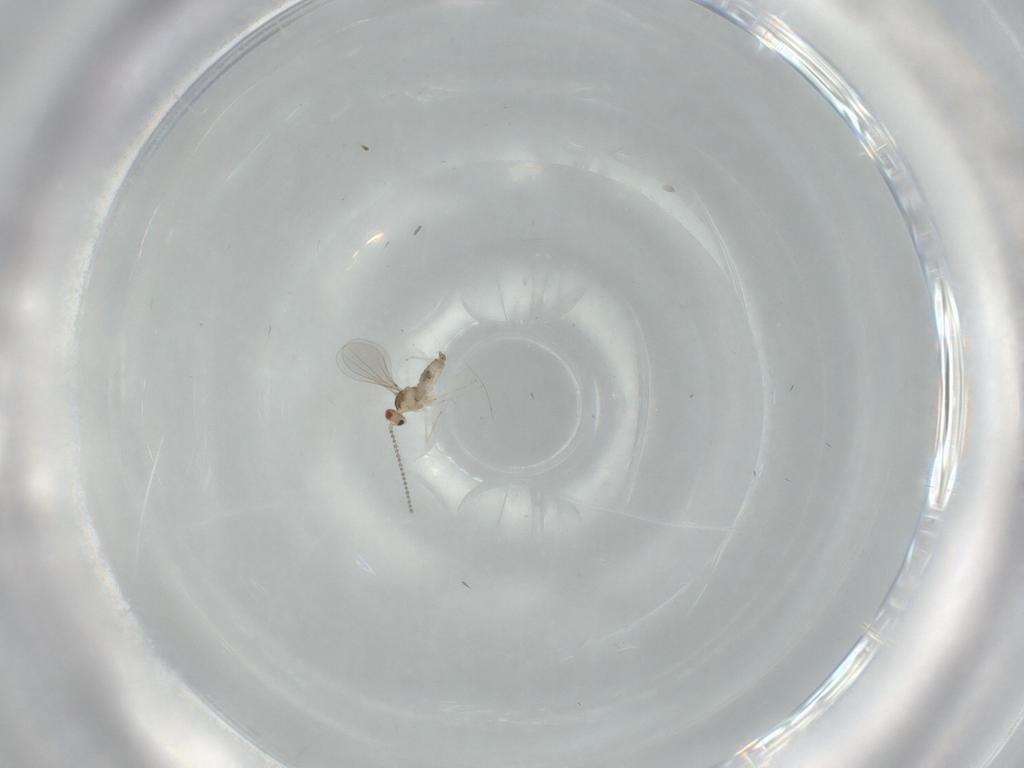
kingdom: Animalia
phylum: Arthropoda
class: Insecta
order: Diptera
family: Cecidomyiidae
